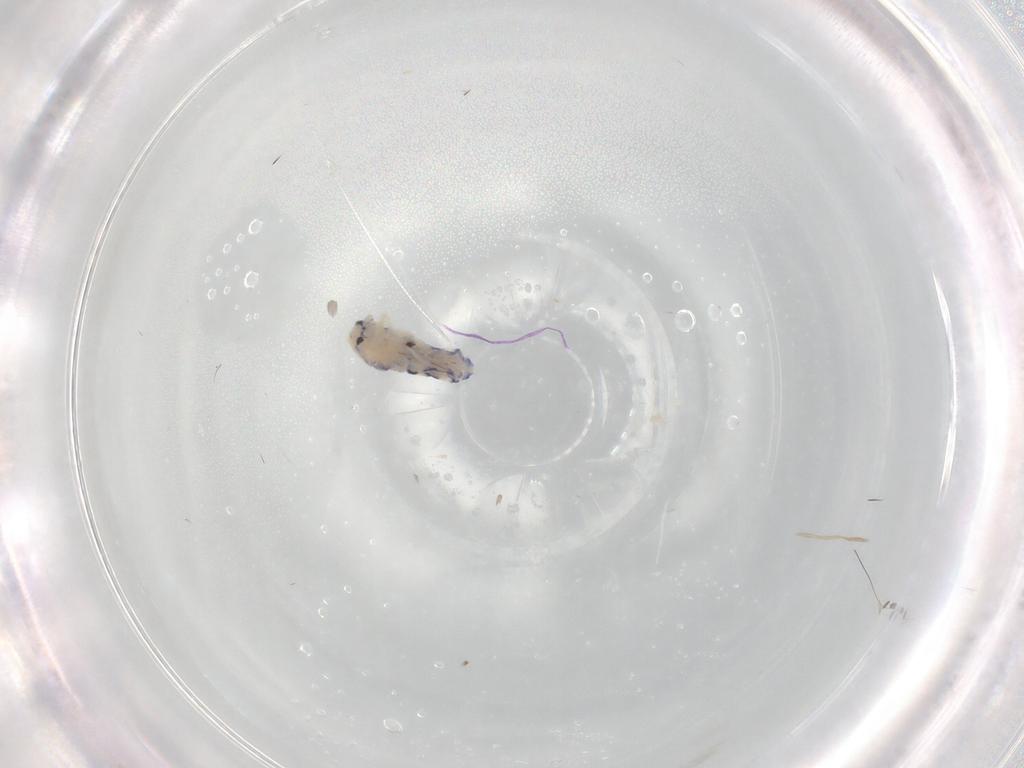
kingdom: Animalia
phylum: Arthropoda
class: Collembola
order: Entomobryomorpha
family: Entomobryidae
